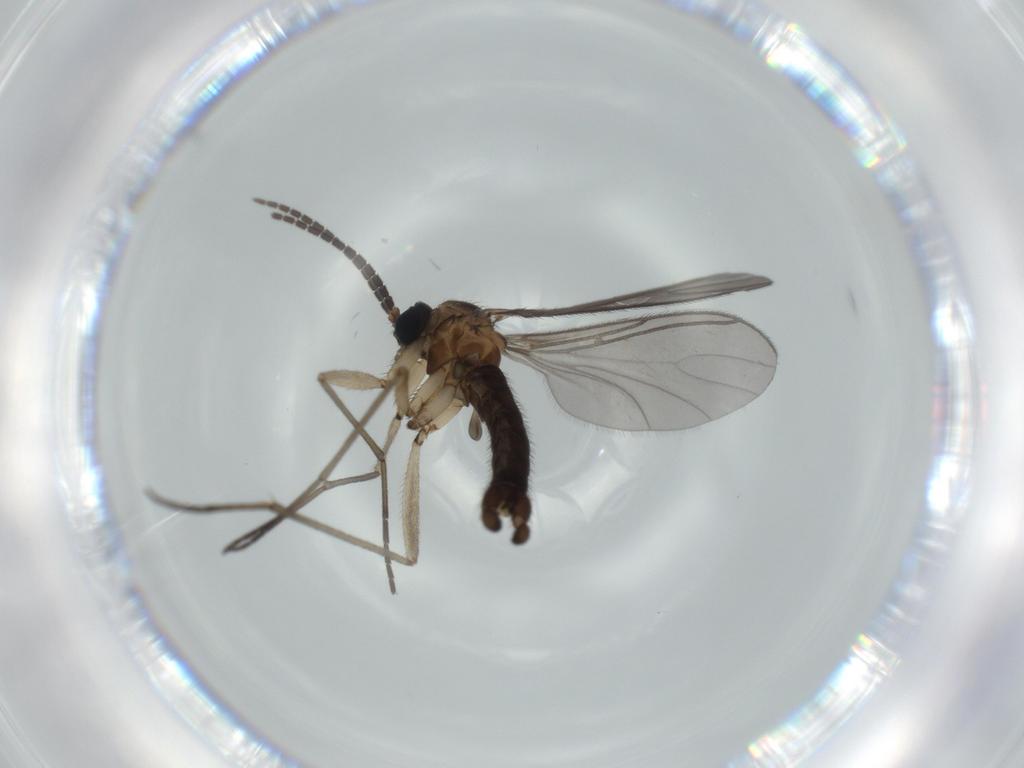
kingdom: Animalia
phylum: Arthropoda
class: Insecta
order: Diptera
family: Sciaridae
